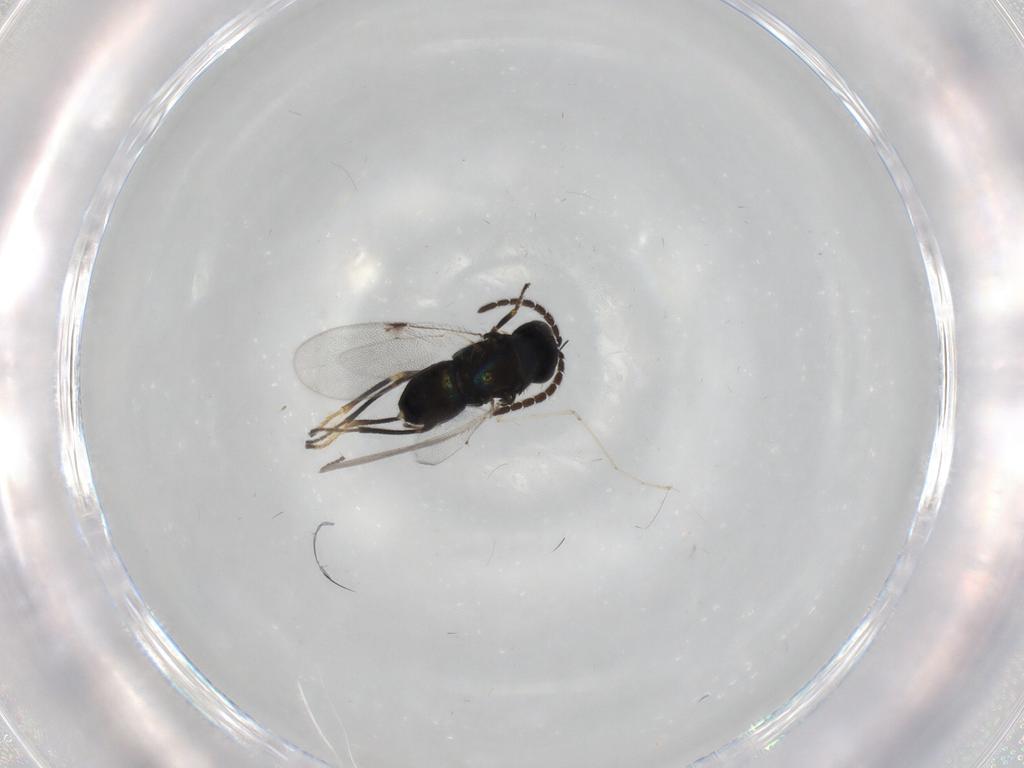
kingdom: Animalia
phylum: Arthropoda
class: Insecta
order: Hymenoptera
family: Encyrtidae
